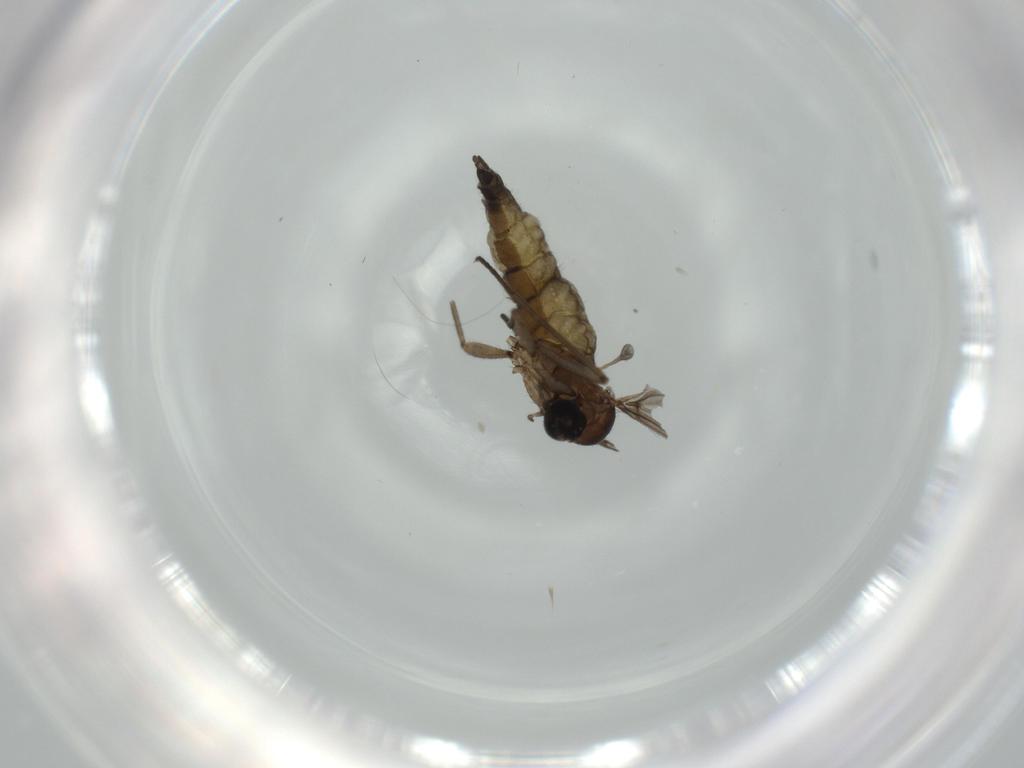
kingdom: Animalia
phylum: Arthropoda
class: Insecta
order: Diptera
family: Sciaridae
